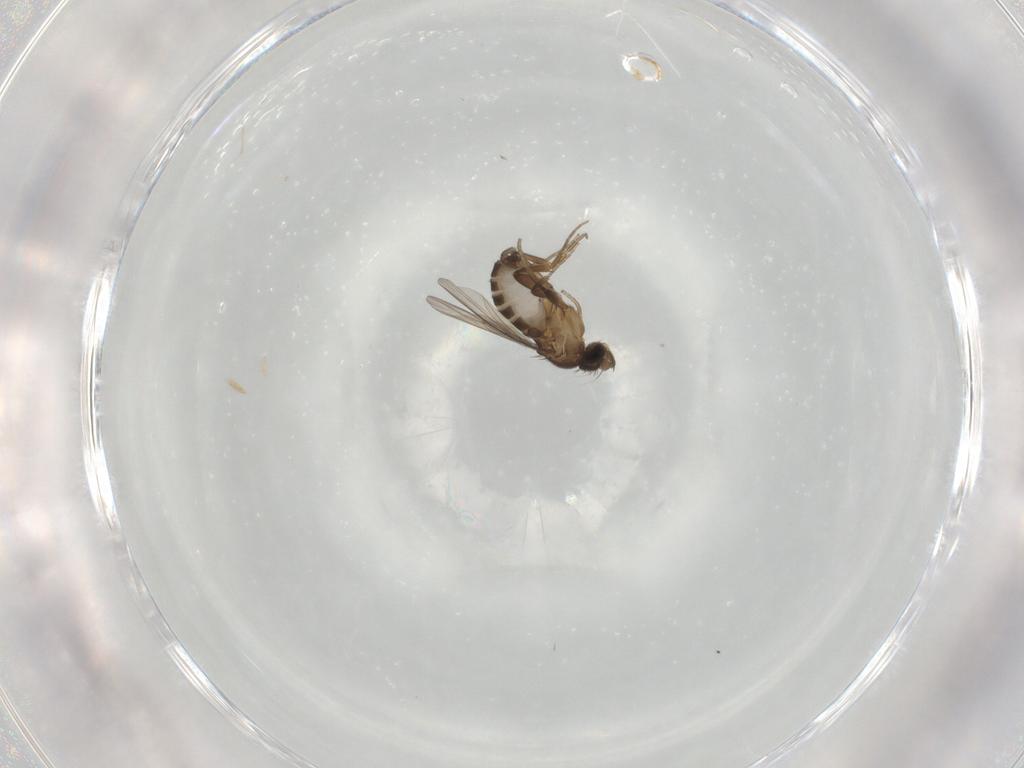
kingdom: Animalia
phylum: Arthropoda
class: Insecta
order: Diptera
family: Phoridae
